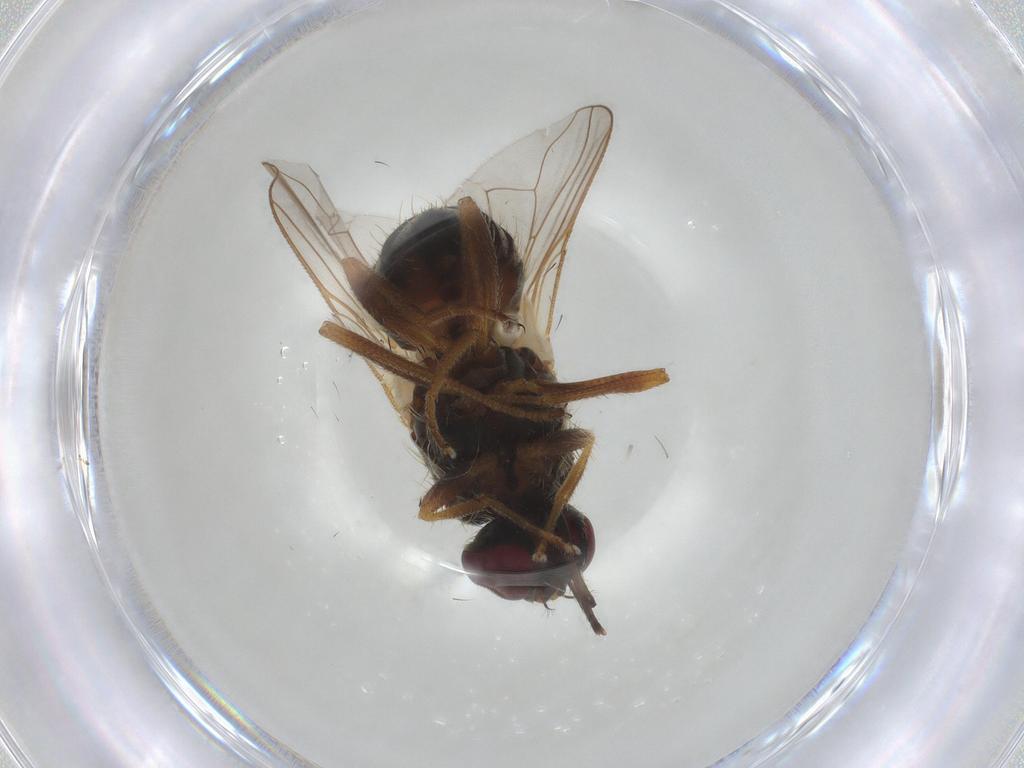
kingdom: Animalia
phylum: Arthropoda
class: Insecta
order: Diptera
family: Muscidae
